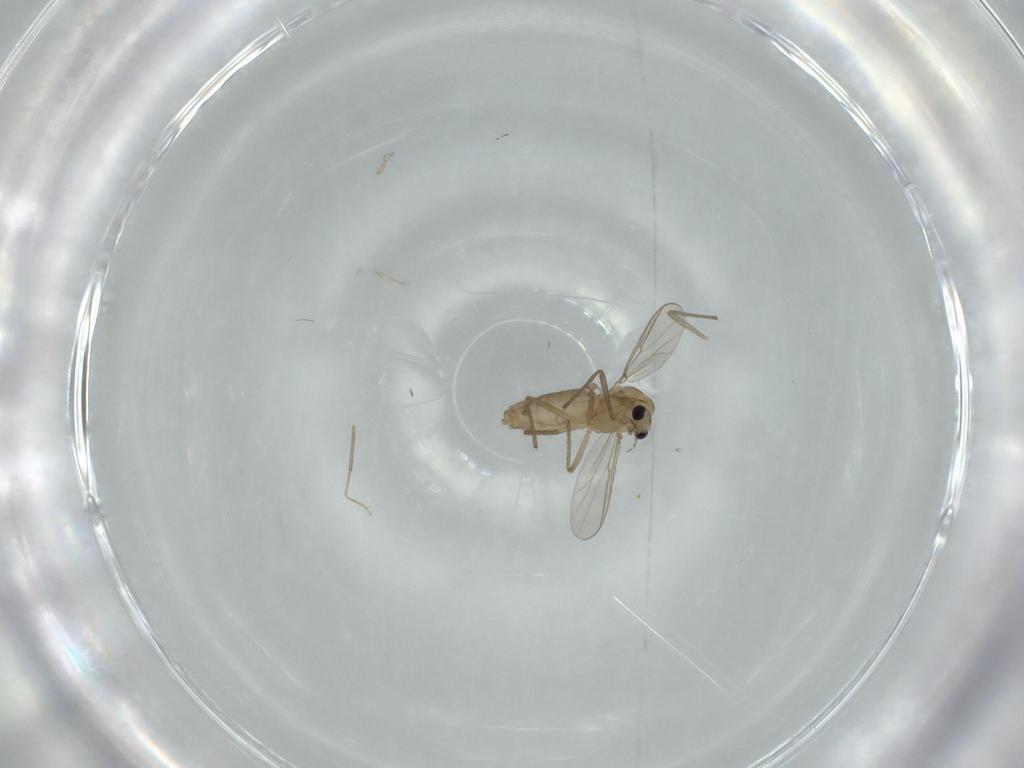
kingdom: Animalia
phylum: Arthropoda
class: Insecta
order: Diptera
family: Chironomidae
